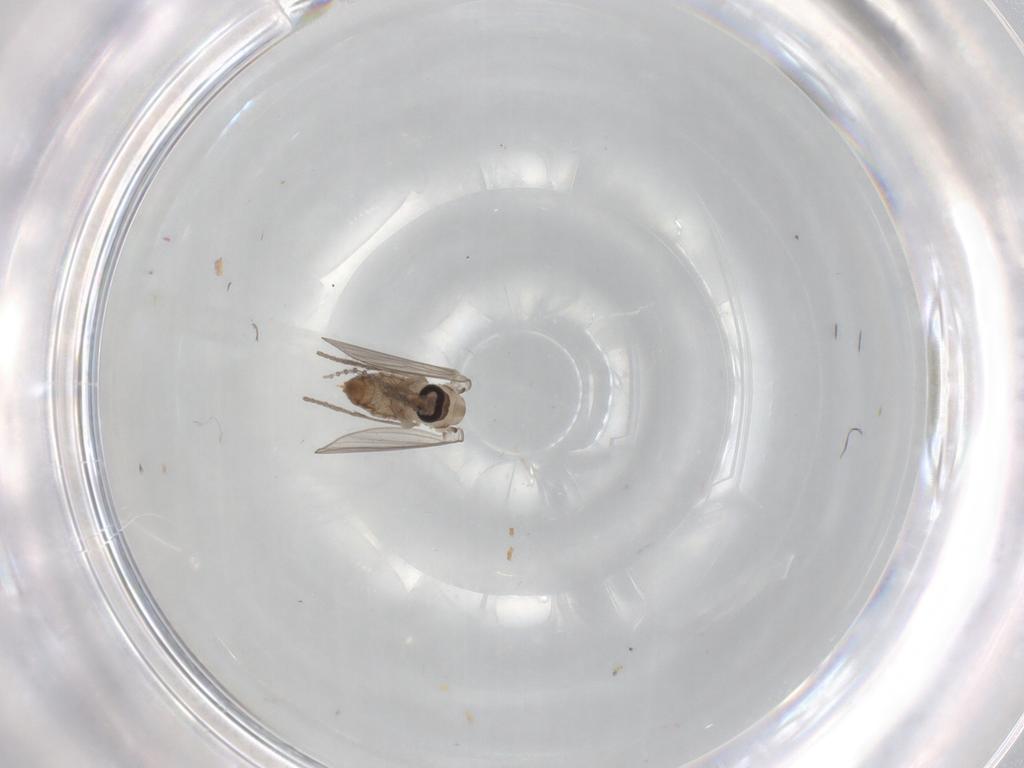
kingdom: Animalia
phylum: Arthropoda
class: Insecta
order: Diptera
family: Psychodidae
